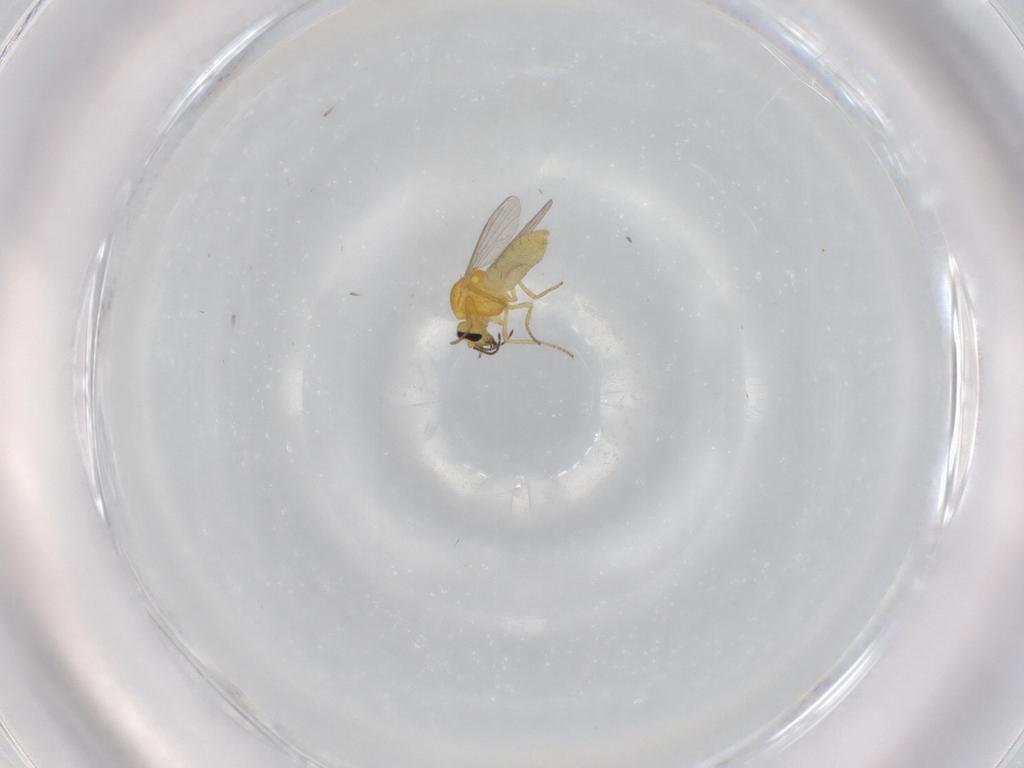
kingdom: Animalia
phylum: Arthropoda
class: Insecta
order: Diptera
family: Ceratopogonidae
